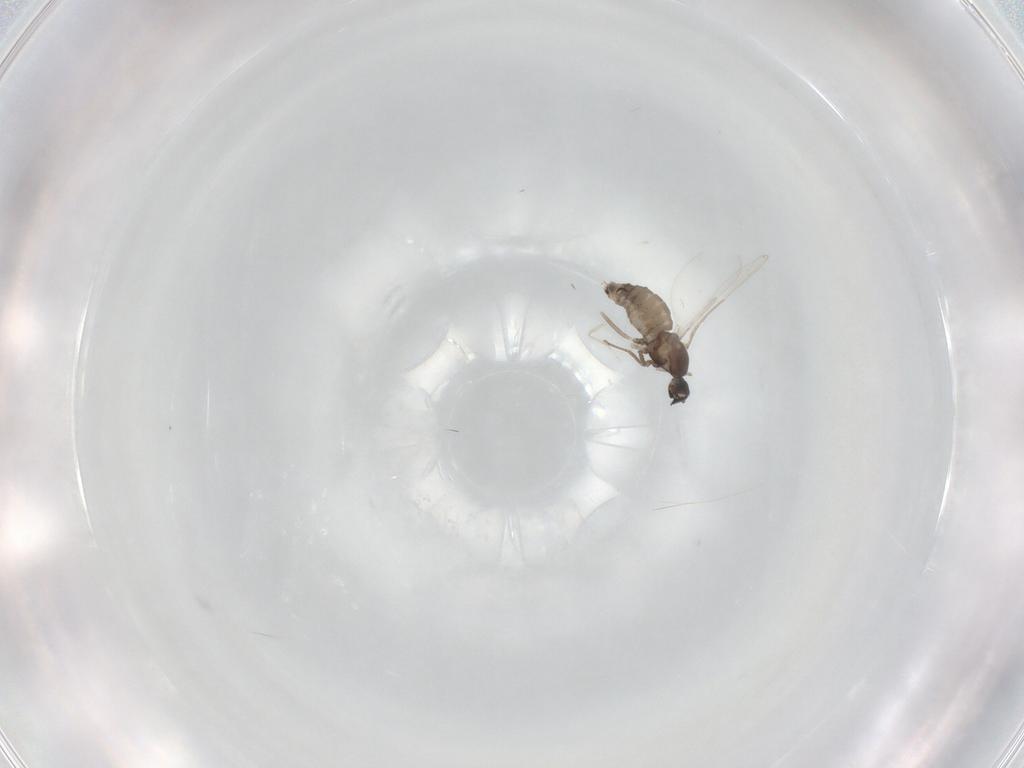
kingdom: Animalia
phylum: Arthropoda
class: Insecta
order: Diptera
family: Cecidomyiidae
